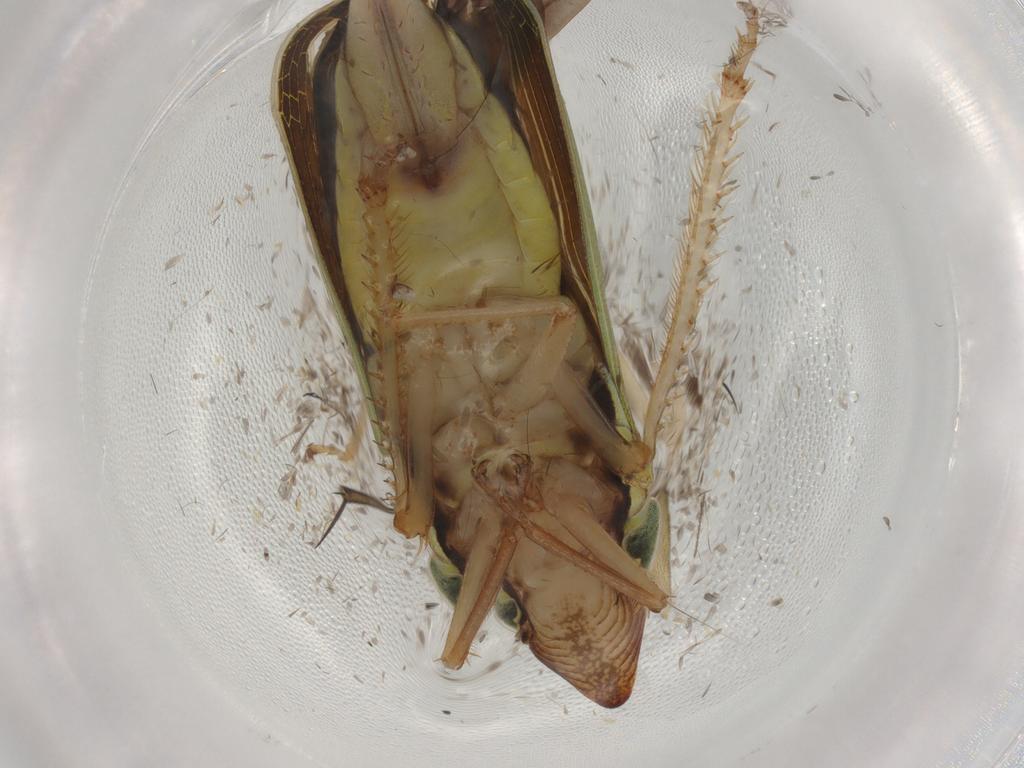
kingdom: Animalia
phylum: Arthropoda
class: Insecta
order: Hemiptera
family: Cicadellidae
